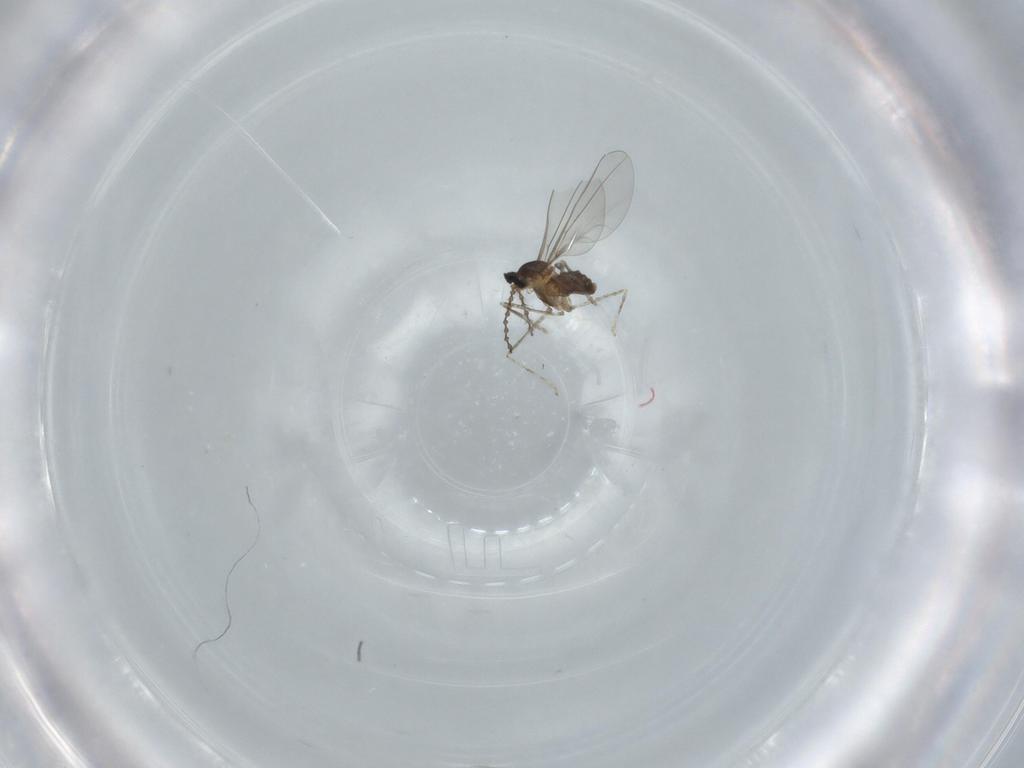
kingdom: Animalia
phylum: Arthropoda
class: Insecta
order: Diptera
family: Cecidomyiidae
